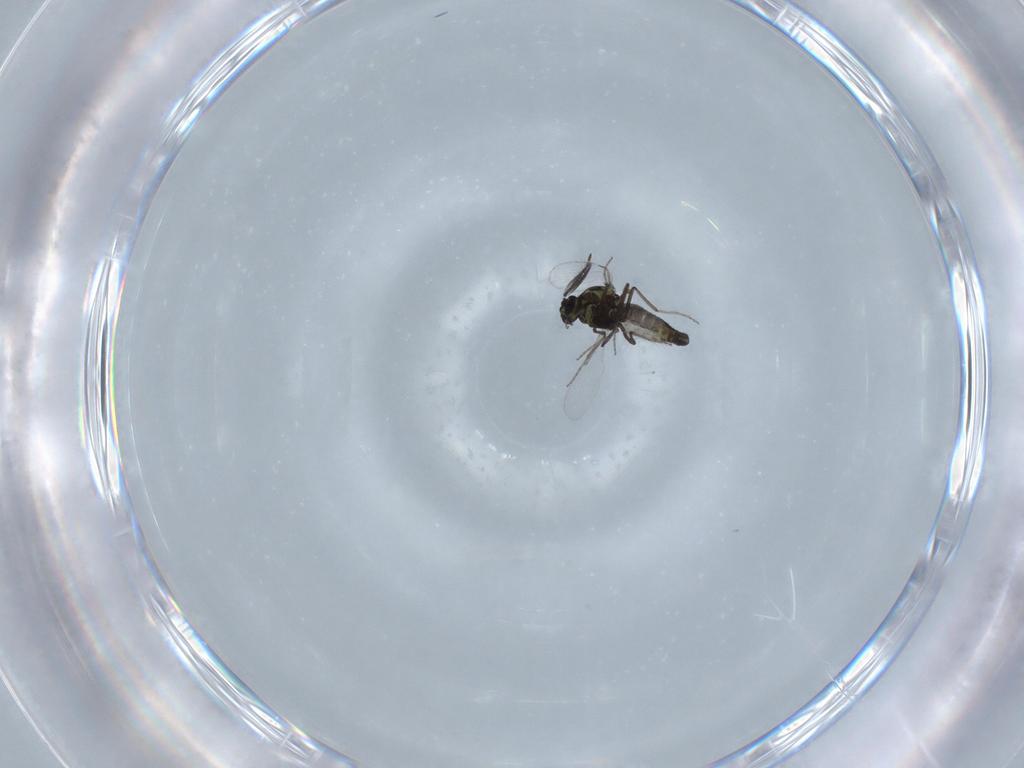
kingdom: Animalia
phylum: Arthropoda
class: Insecta
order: Diptera
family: Ceratopogonidae
